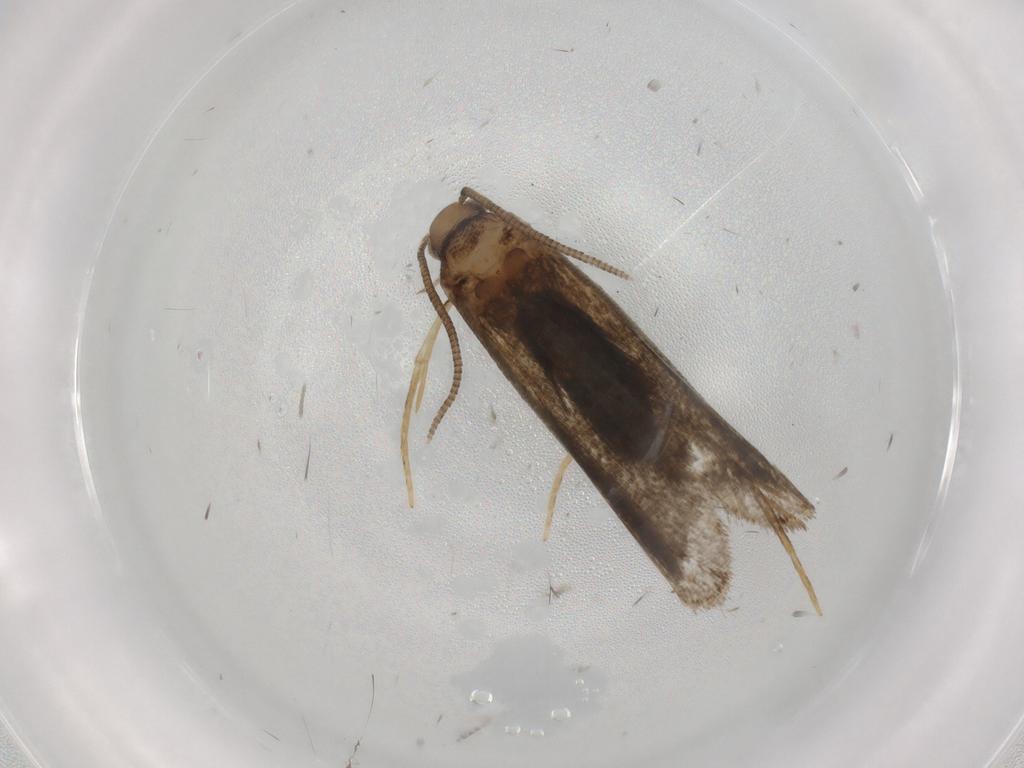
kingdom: Animalia
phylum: Arthropoda
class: Insecta
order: Lepidoptera
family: Dryadaulidae
